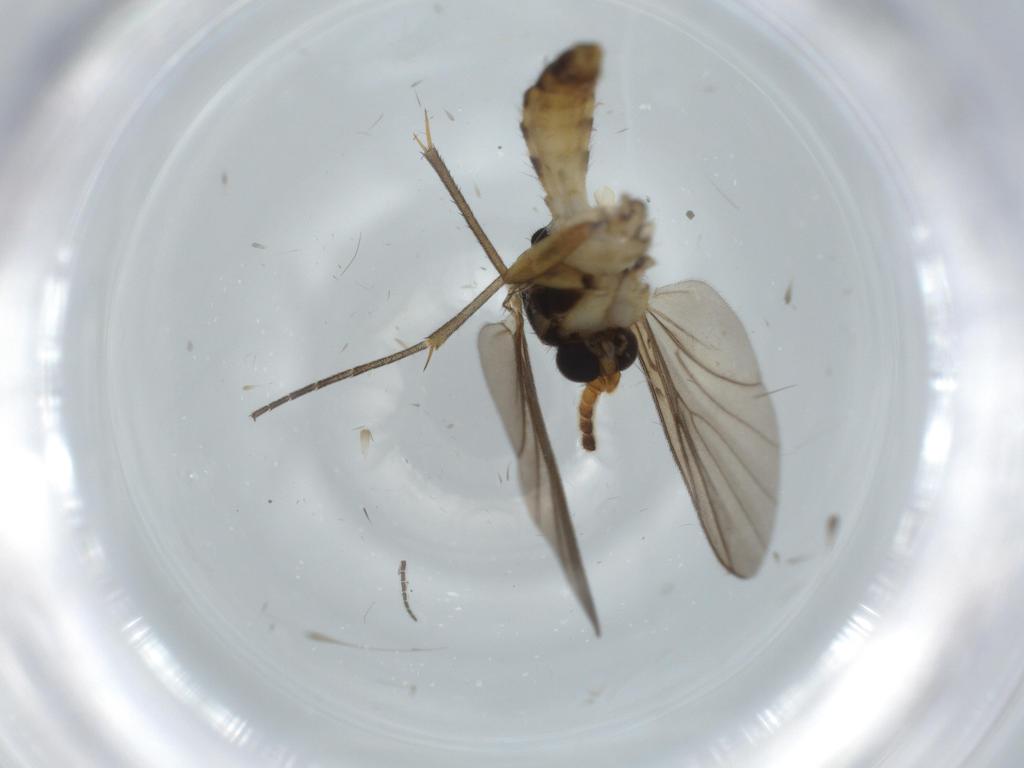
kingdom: Animalia
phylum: Arthropoda
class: Insecta
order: Diptera
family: Cecidomyiidae
